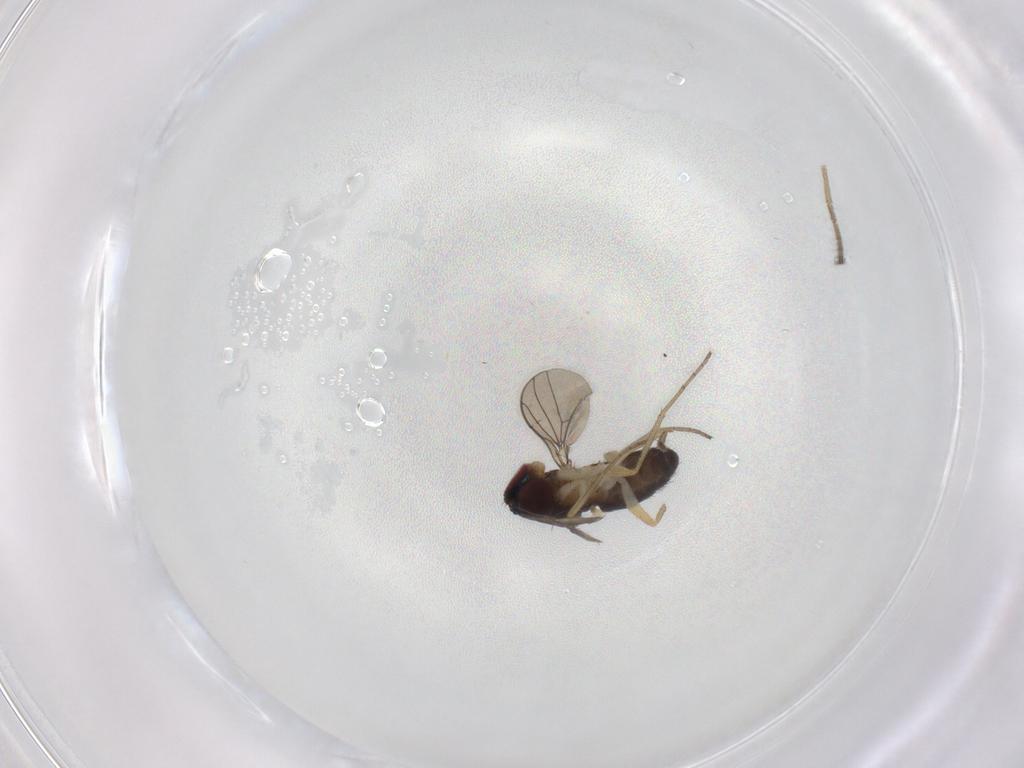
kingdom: Animalia
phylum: Arthropoda
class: Insecta
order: Diptera
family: Dolichopodidae
